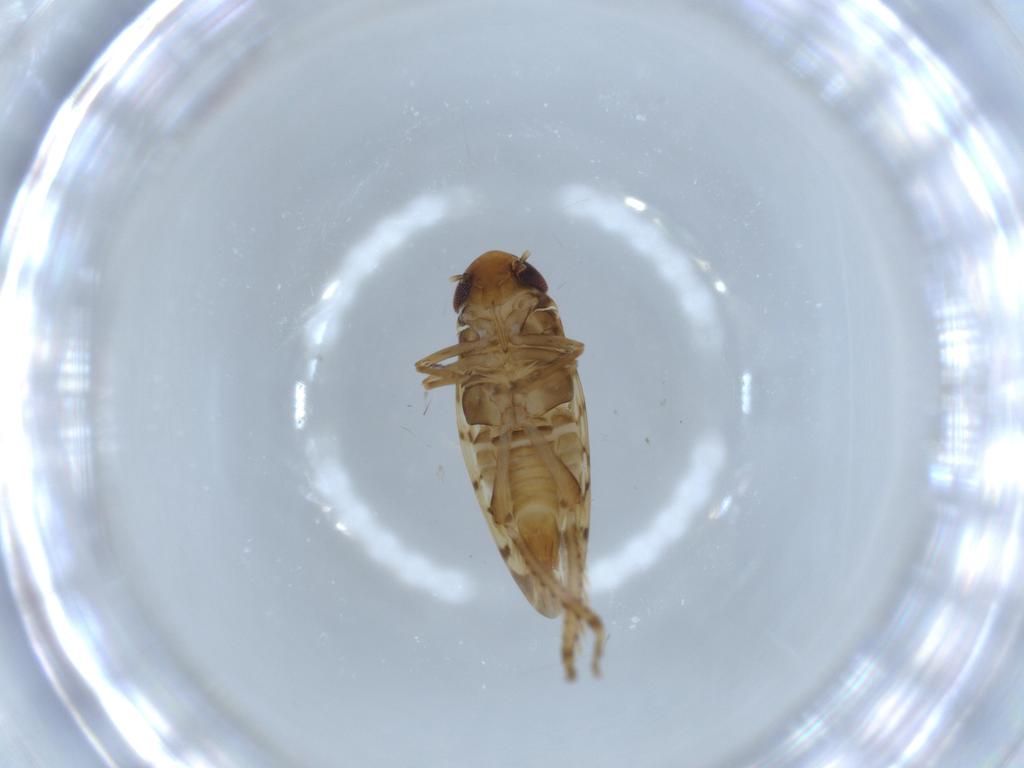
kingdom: Animalia
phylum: Arthropoda
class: Insecta
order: Hemiptera
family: Cicadellidae
